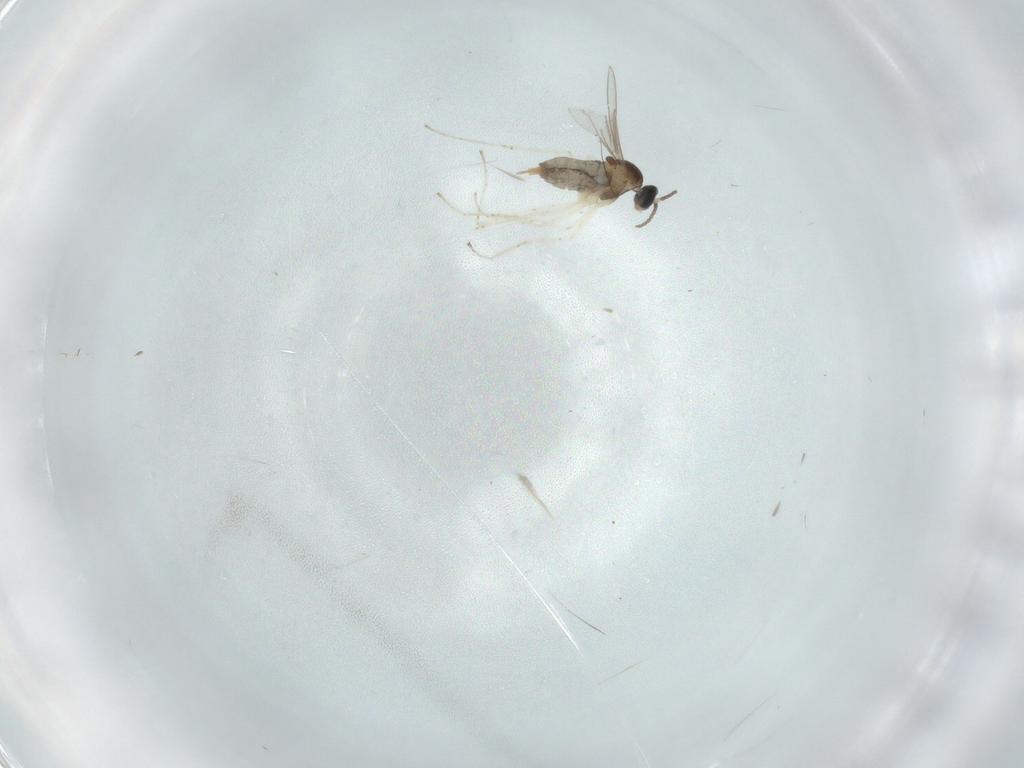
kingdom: Animalia
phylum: Arthropoda
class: Insecta
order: Diptera
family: Cecidomyiidae
